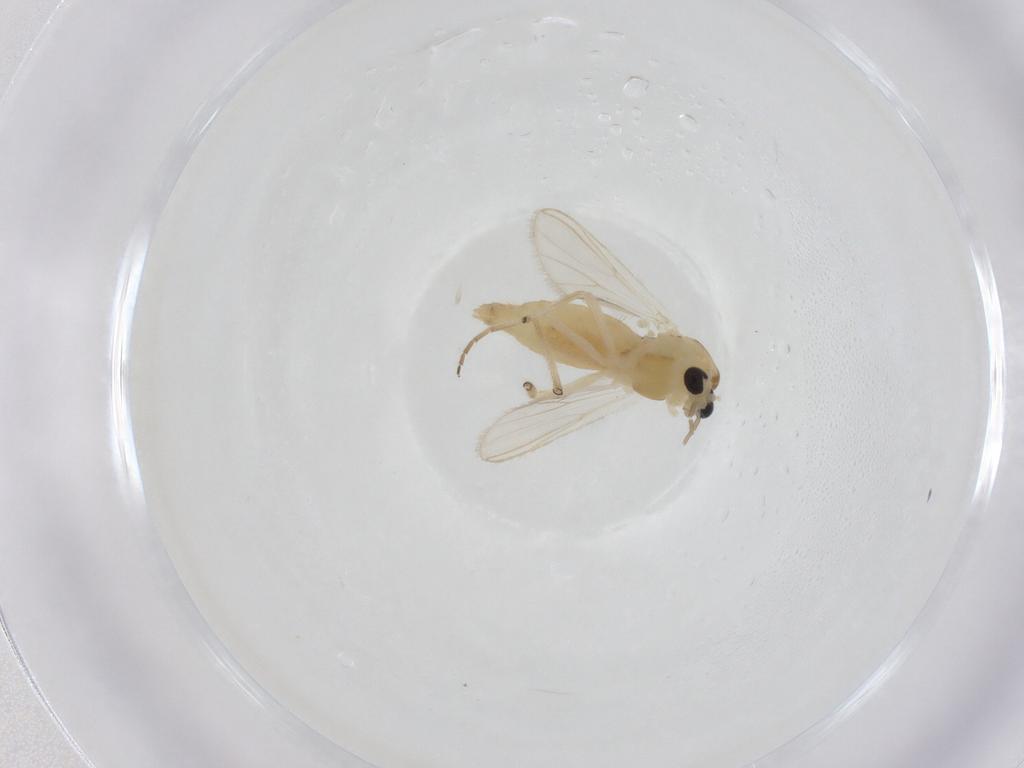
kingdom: Animalia
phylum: Arthropoda
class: Insecta
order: Diptera
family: Chironomidae
